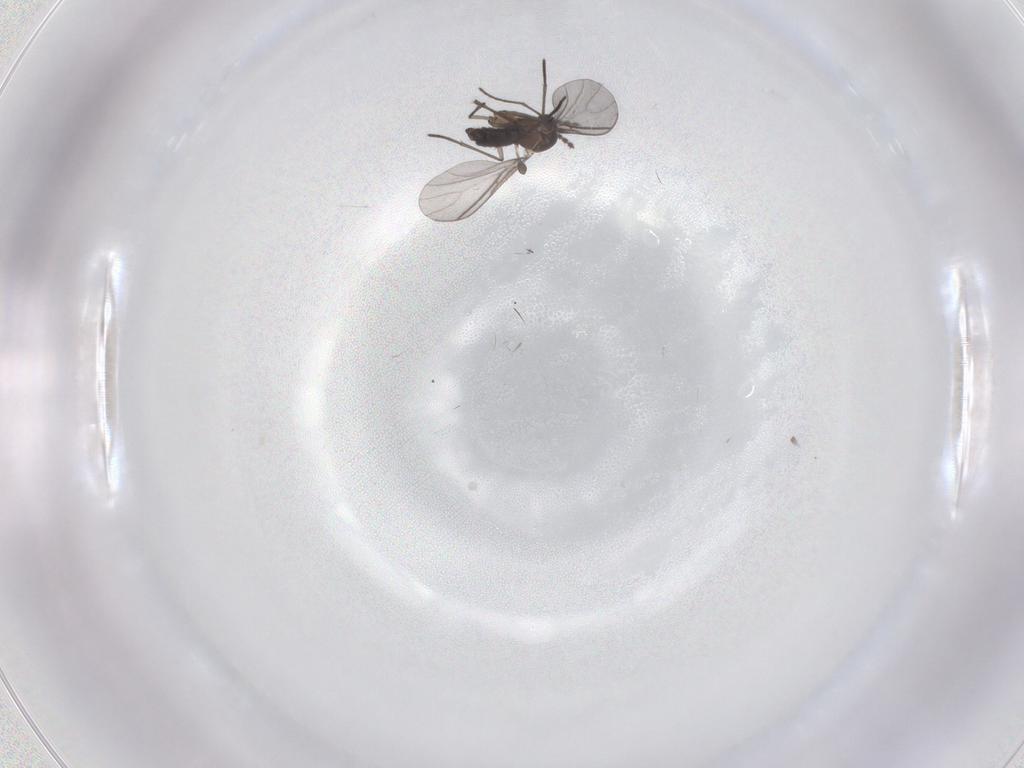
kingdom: Animalia
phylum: Arthropoda
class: Insecta
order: Diptera
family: Sciaridae
